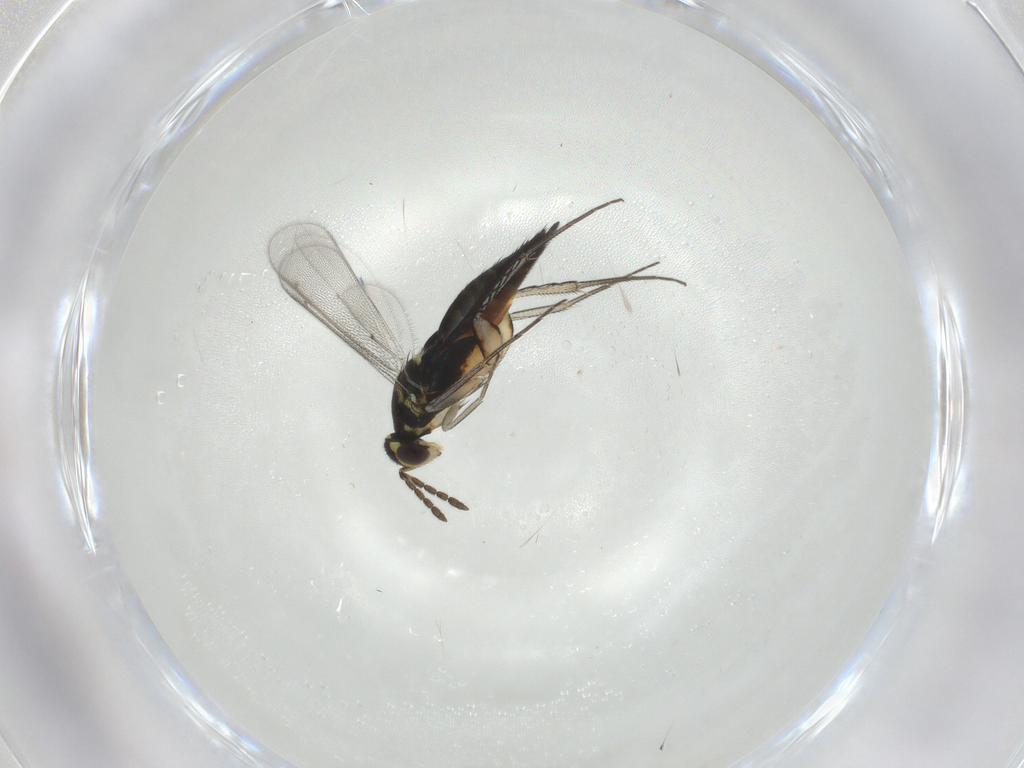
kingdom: Animalia
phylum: Arthropoda
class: Insecta
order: Hymenoptera
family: Eulophidae
